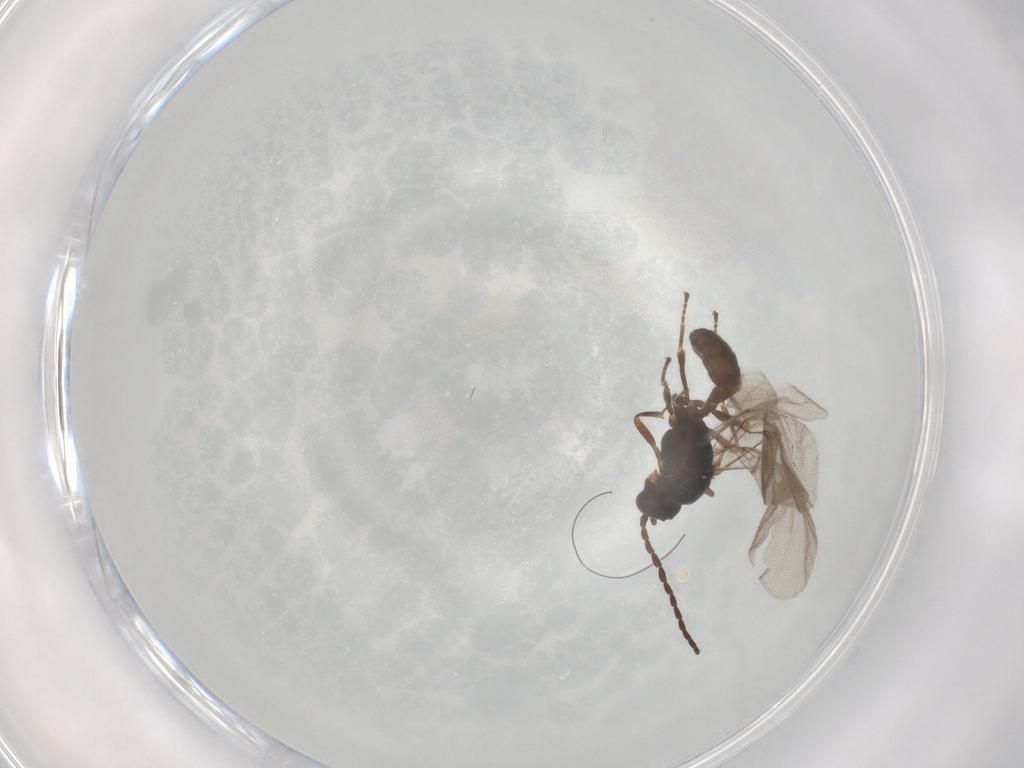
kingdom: Animalia
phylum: Arthropoda
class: Insecta
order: Hymenoptera
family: Braconidae
